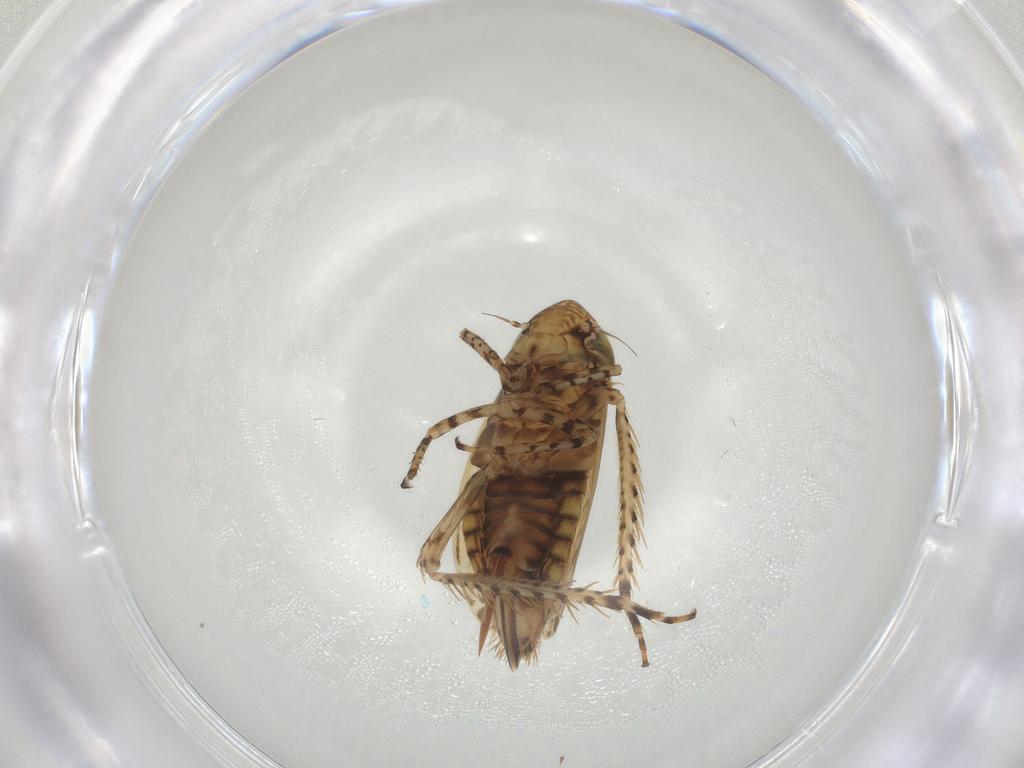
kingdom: Animalia
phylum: Arthropoda
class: Insecta
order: Hemiptera
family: Cicadellidae
